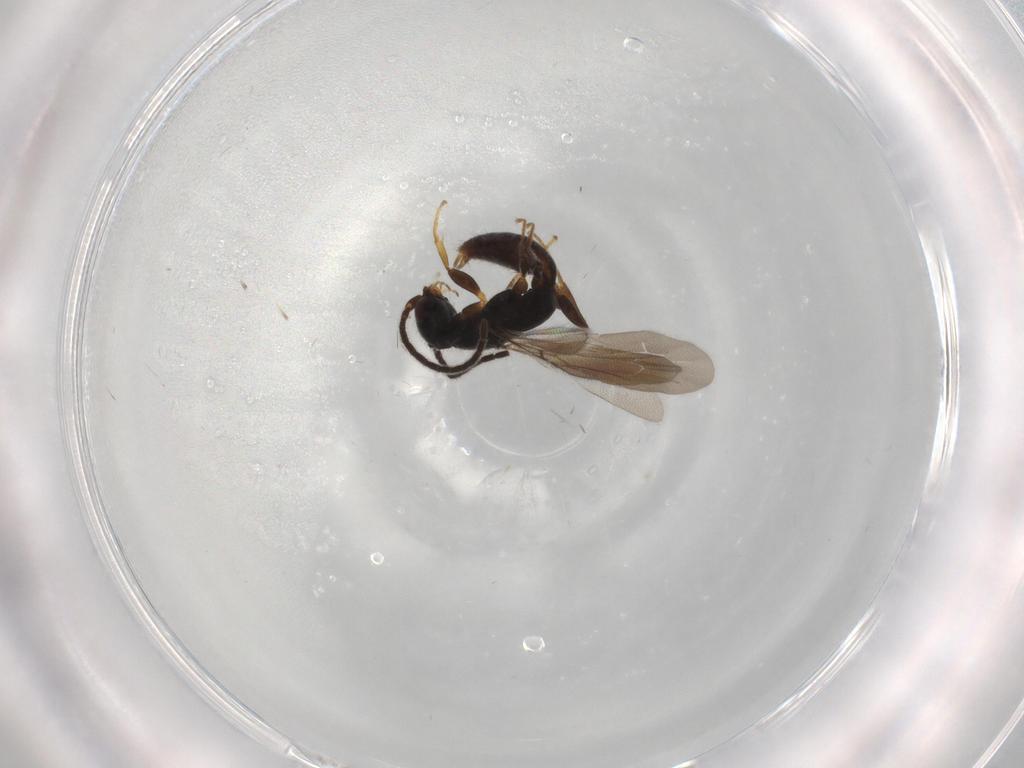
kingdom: Animalia
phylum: Arthropoda
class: Insecta
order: Hymenoptera
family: Bethylidae
